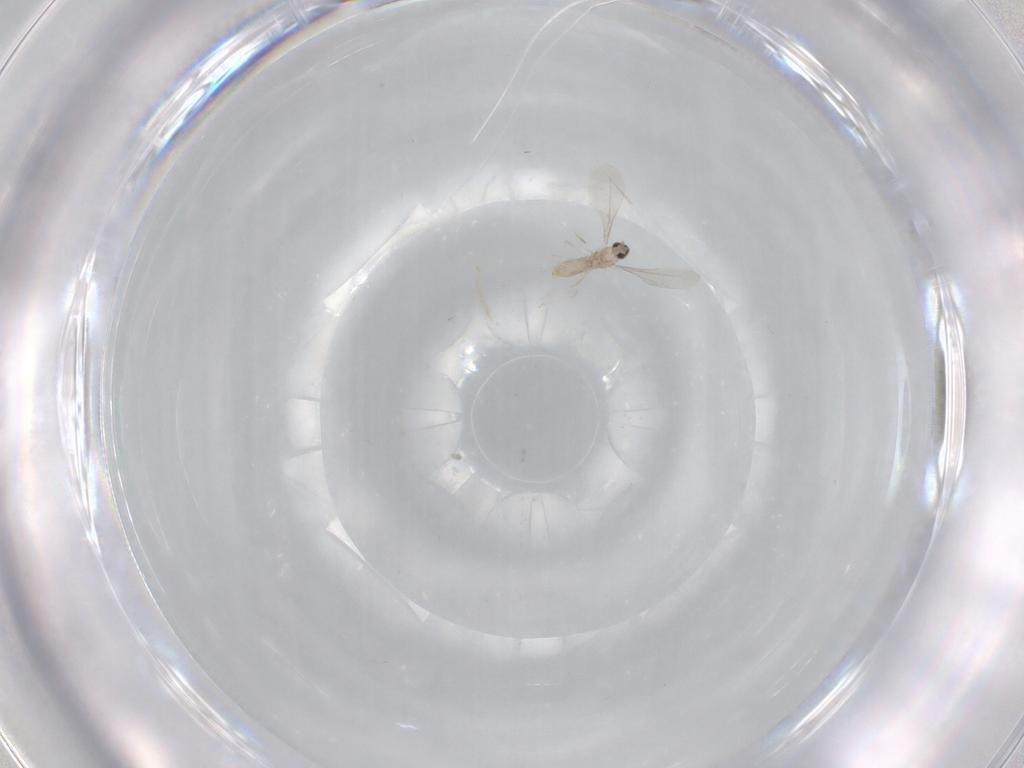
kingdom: Animalia
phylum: Arthropoda
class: Insecta
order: Diptera
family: Cecidomyiidae
